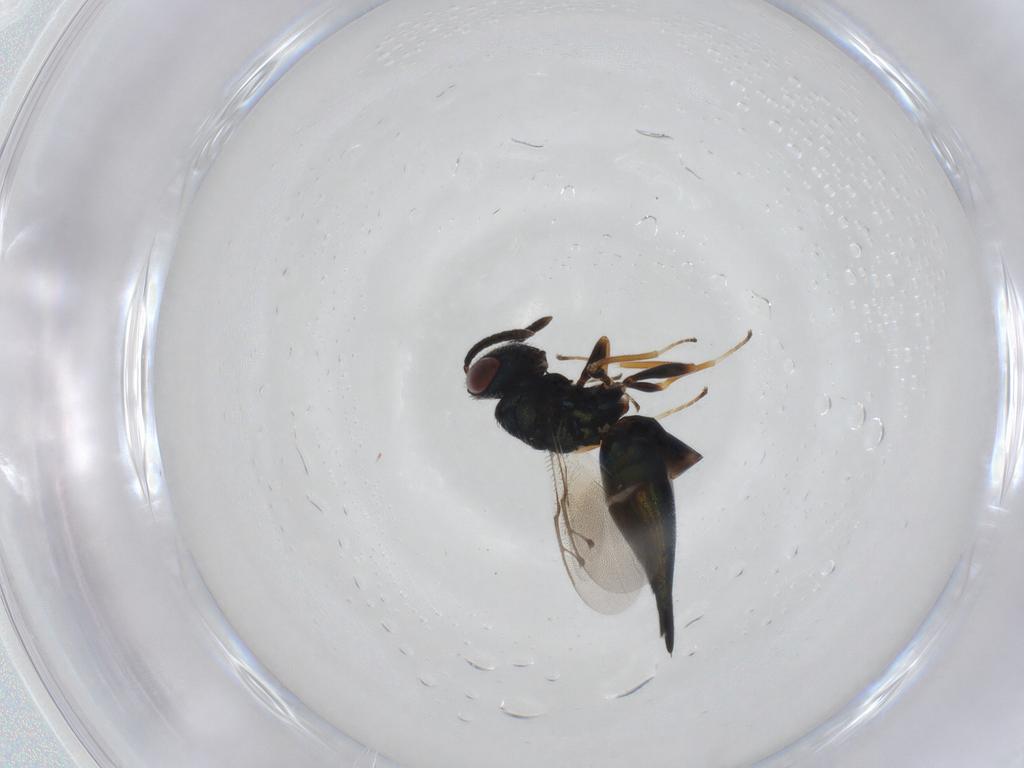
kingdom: Animalia
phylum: Arthropoda
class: Insecta
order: Hymenoptera
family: Pteromalidae
